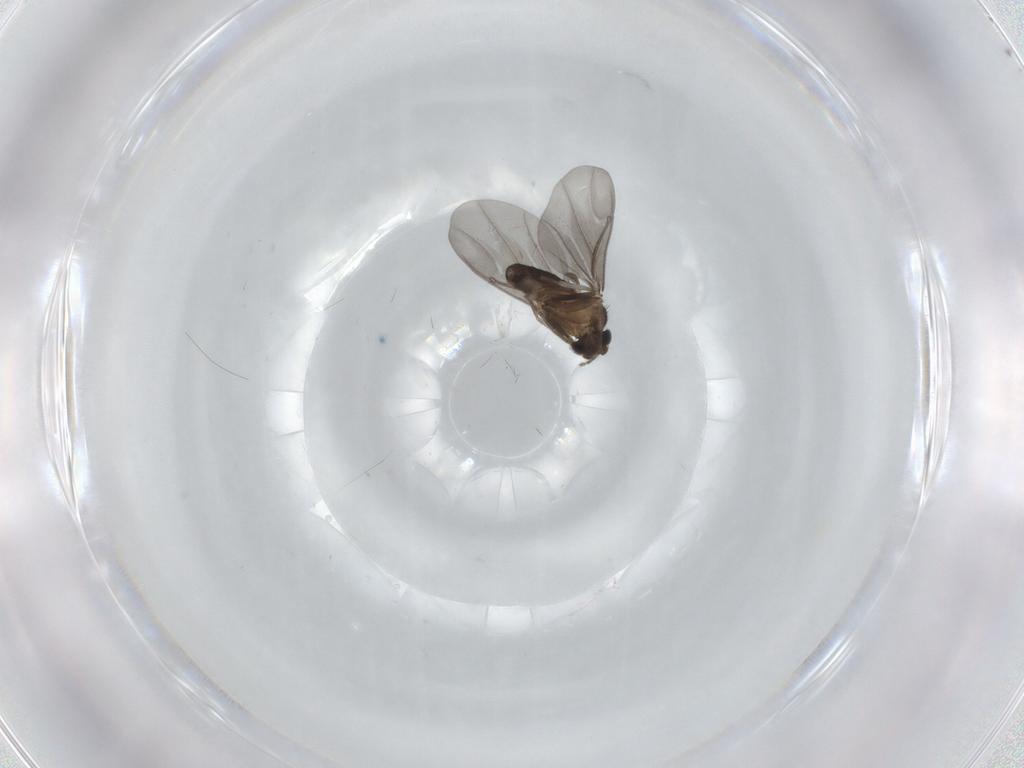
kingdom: Animalia
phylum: Arthropoda
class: Insecta
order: Diptera
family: Phoridae
